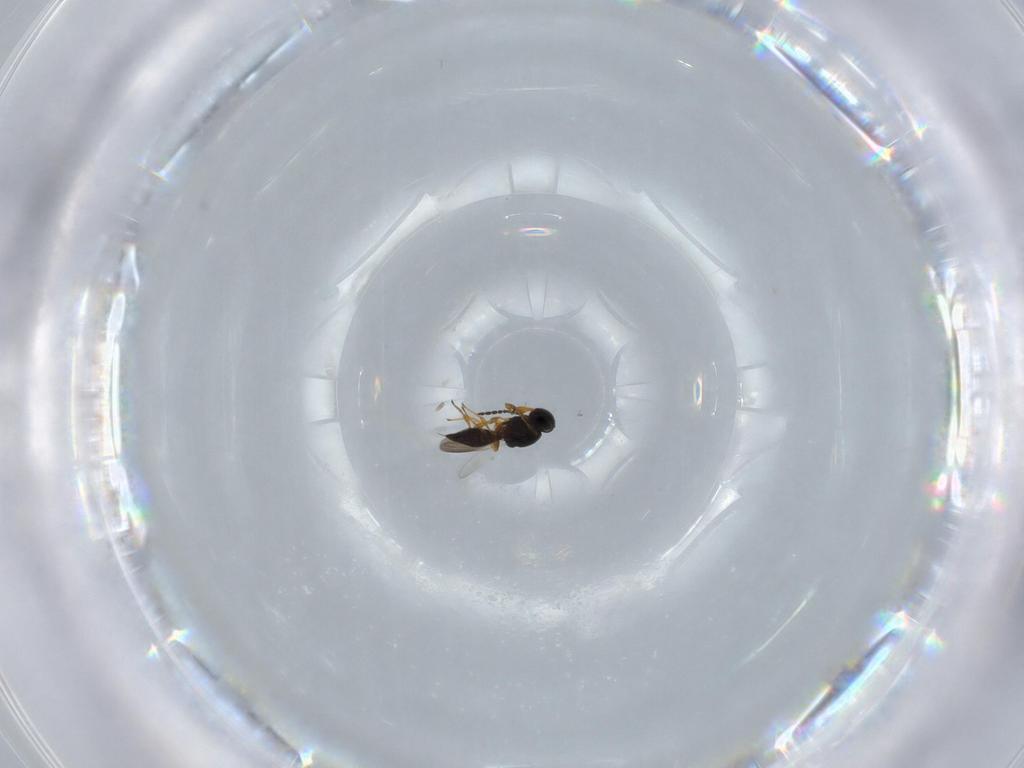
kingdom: Animalia
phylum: Arthropoda
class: Insecta
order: Hymenoptera
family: Platygastridae
